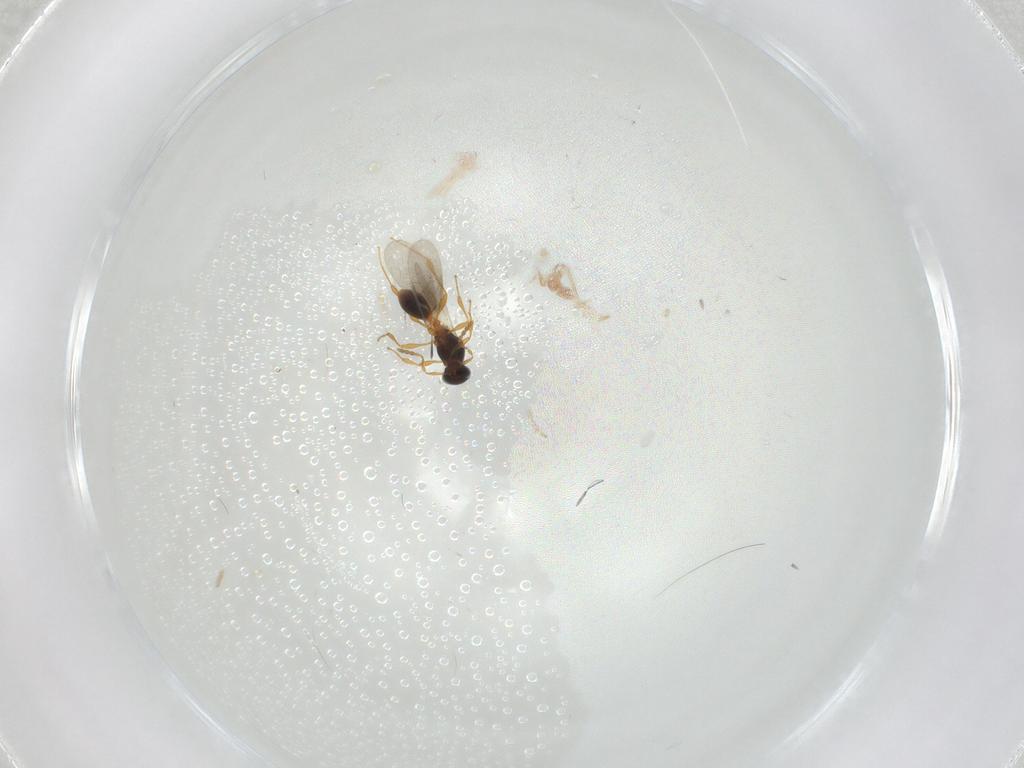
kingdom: Animalia
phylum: Arthropoda
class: Insecta
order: Hymenoptera
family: Platygastridae
